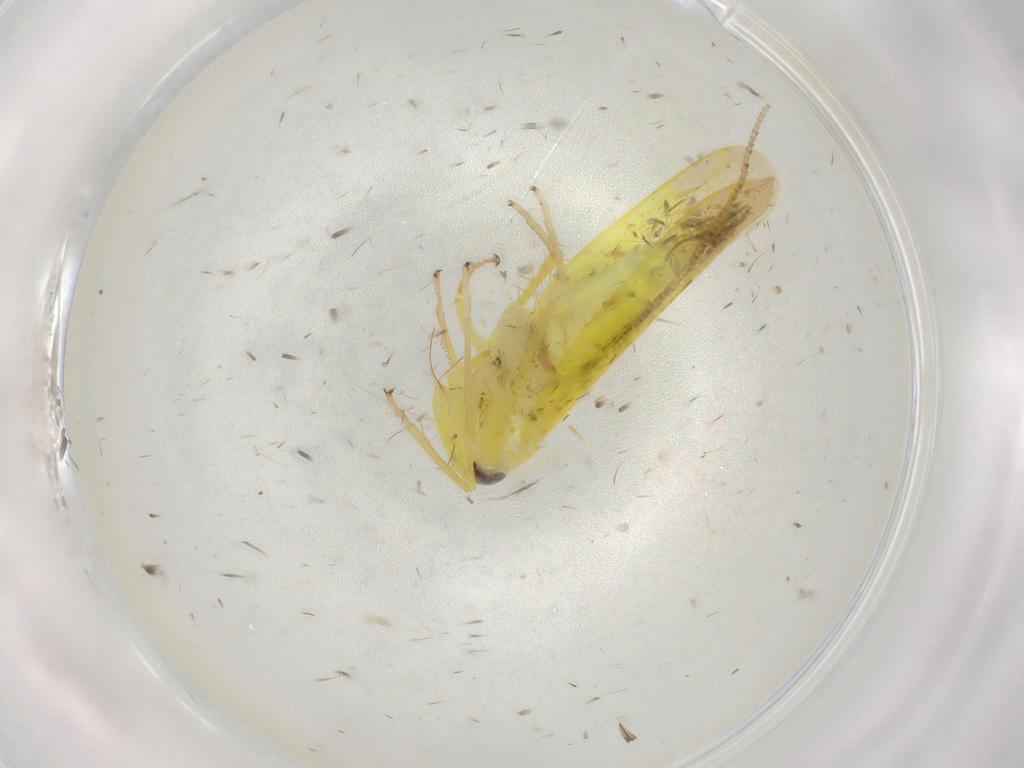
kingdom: Animalia
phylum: Arthropoda
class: Insecta
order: Hemiptera
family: Cicadellidae
